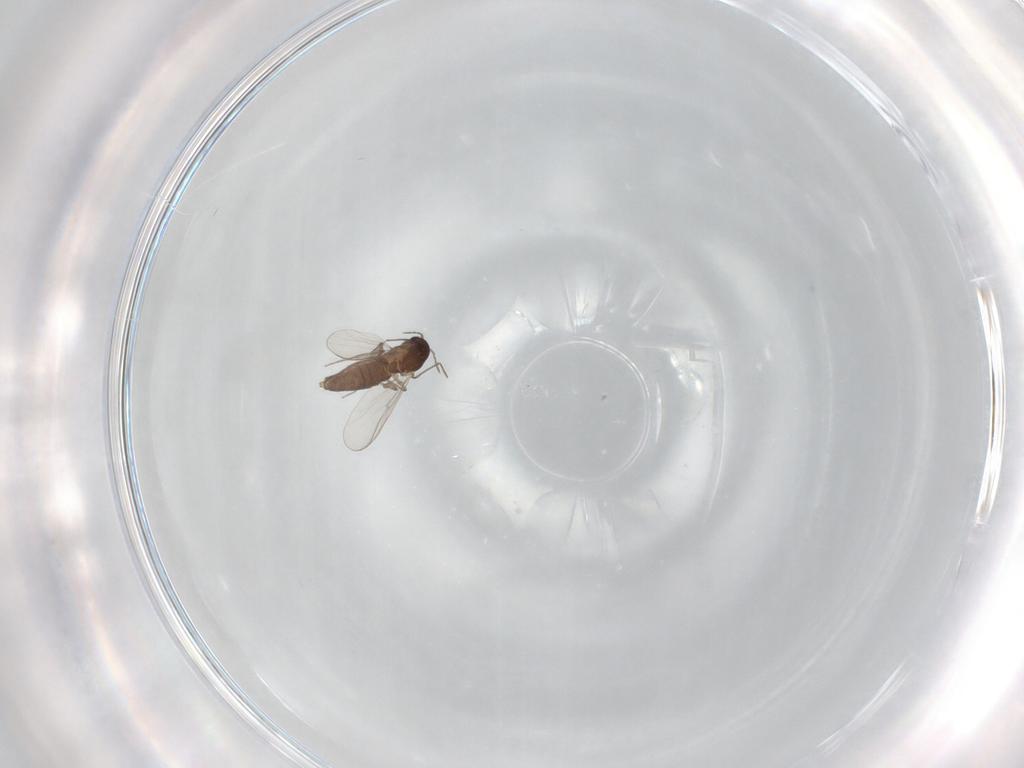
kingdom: Animalia
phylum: Arthropoda
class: Insecta
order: Diptera
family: Chironomidae
